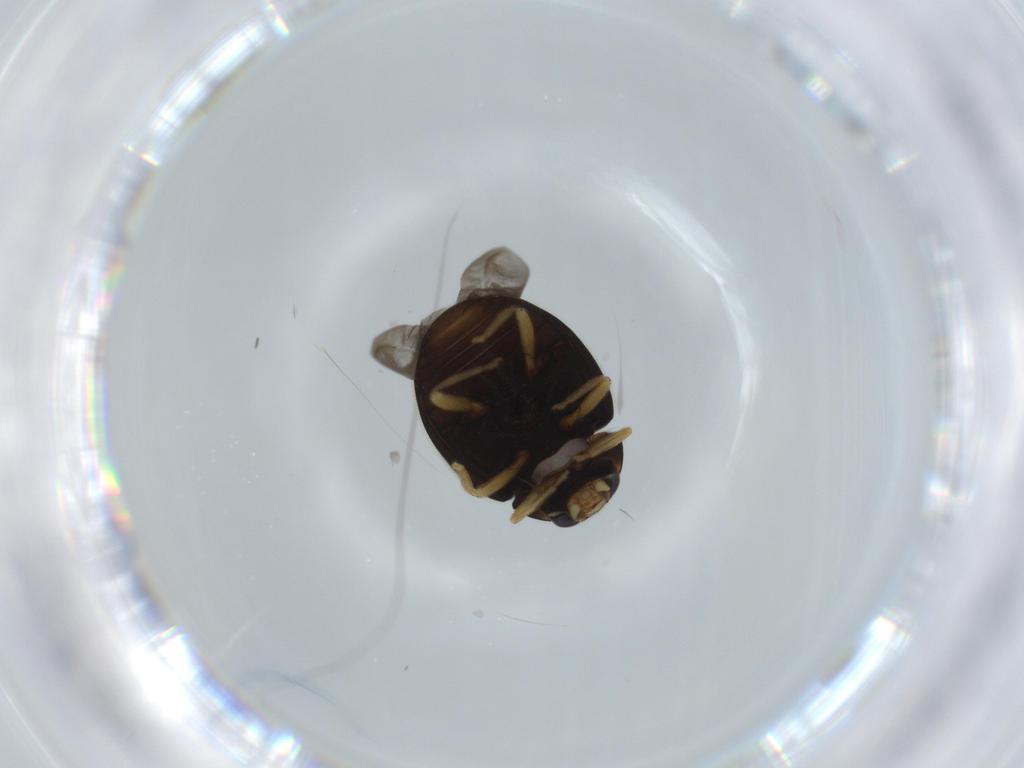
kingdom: Animalia
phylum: Arthropoda
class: Insecta
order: Coleoptera
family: Coccinellidae
